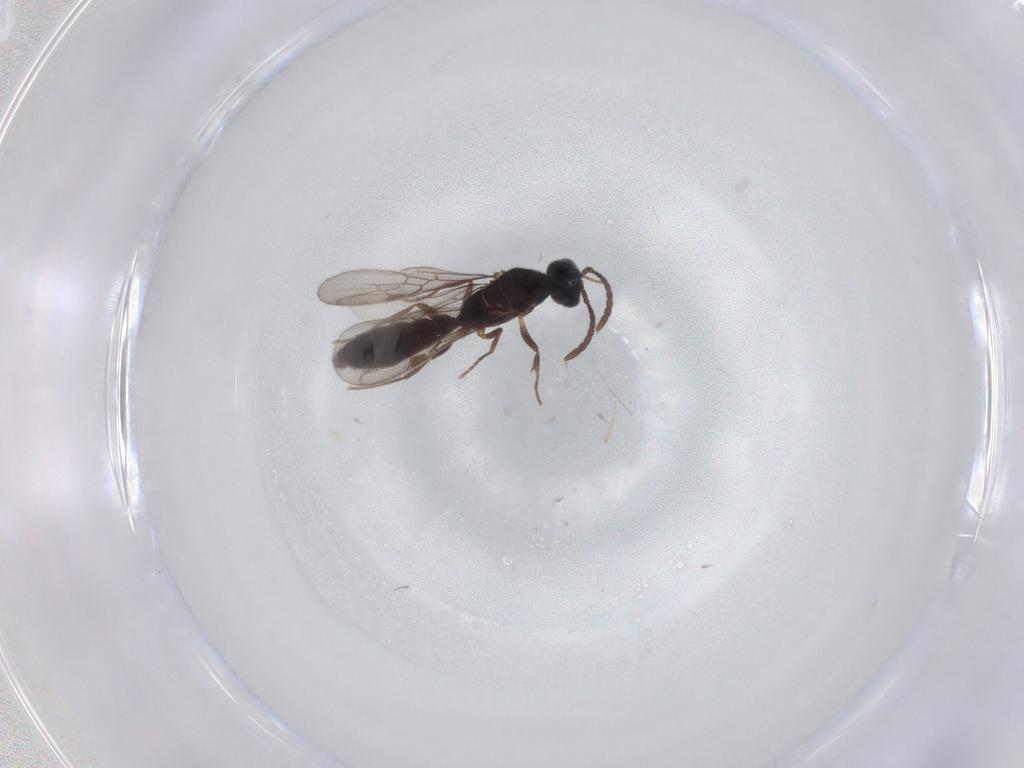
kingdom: Animalia
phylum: Arthropoda
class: Insecta
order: Hymenoptera
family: Formicidae
